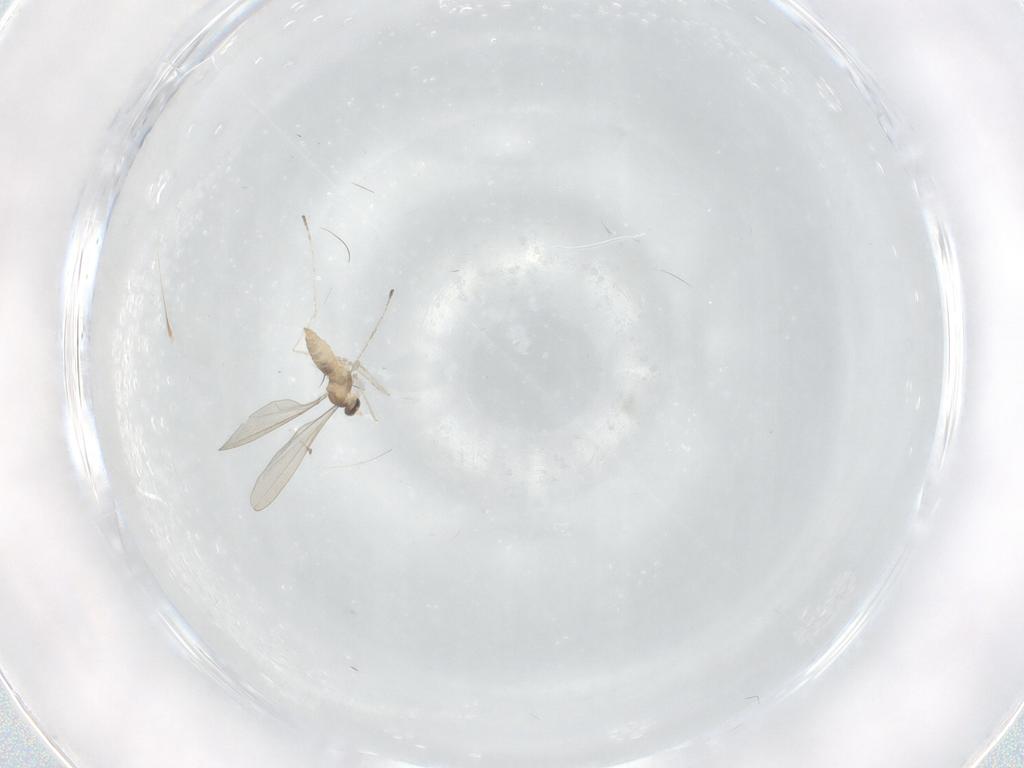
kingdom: Animalia
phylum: Arthropoda
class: Insecta
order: Diptera
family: Cecidomyiidae
